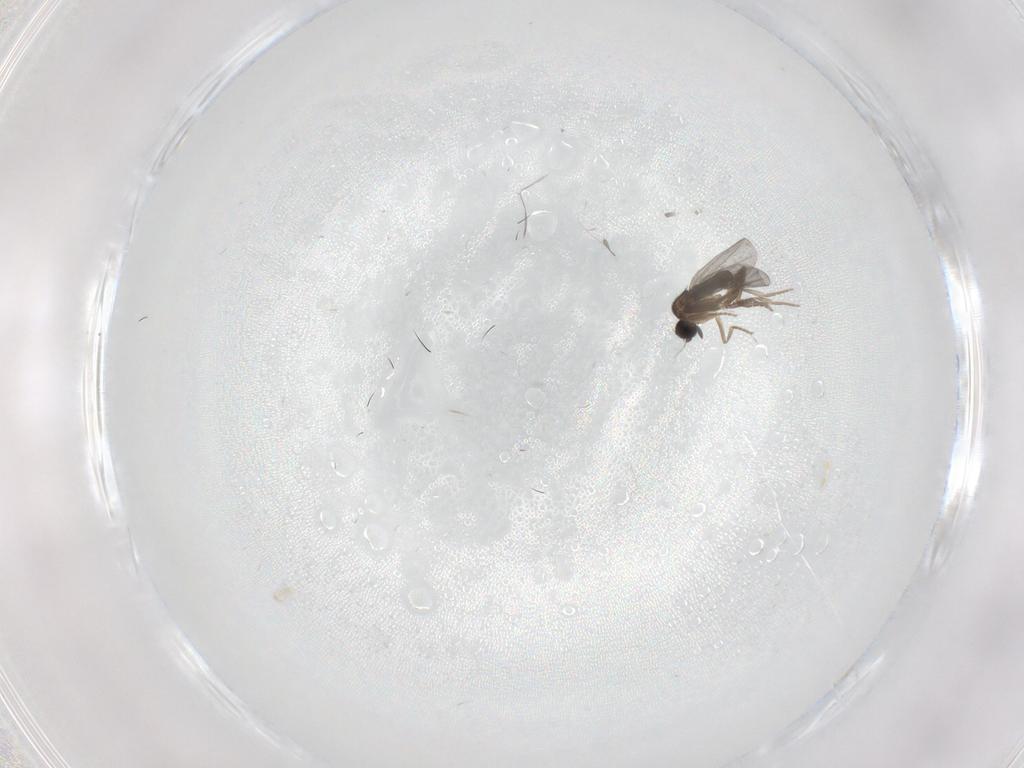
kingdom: Animalia
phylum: Arthropoda
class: Insecta
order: Diptera
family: Cecidomyiidae
